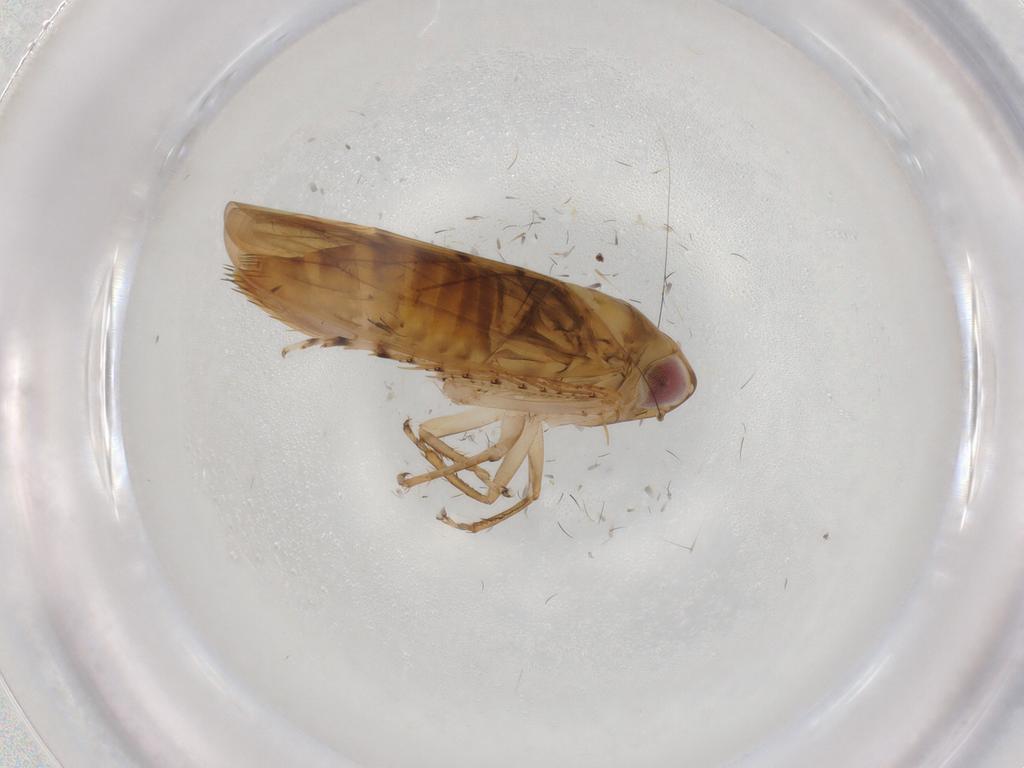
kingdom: Animalia
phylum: Arthropoda
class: Insecta
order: Hemiptera
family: Cicadellidae
